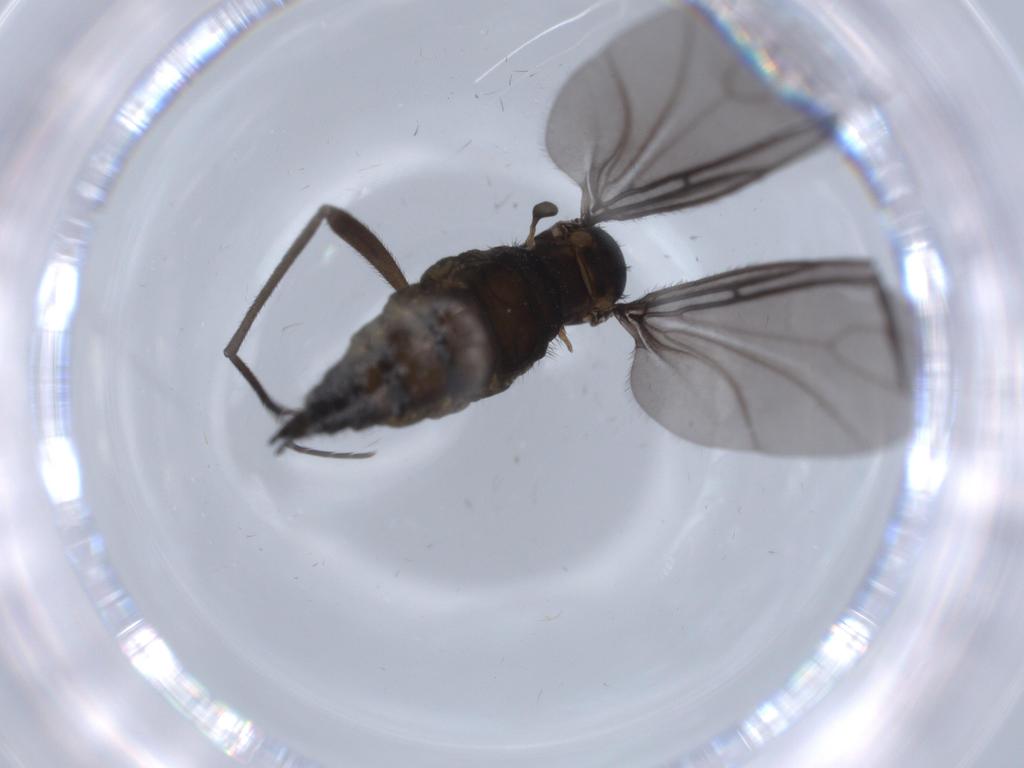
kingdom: Animalia
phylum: Arthropoda
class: Insecta
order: Diptera
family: Sciaridae
